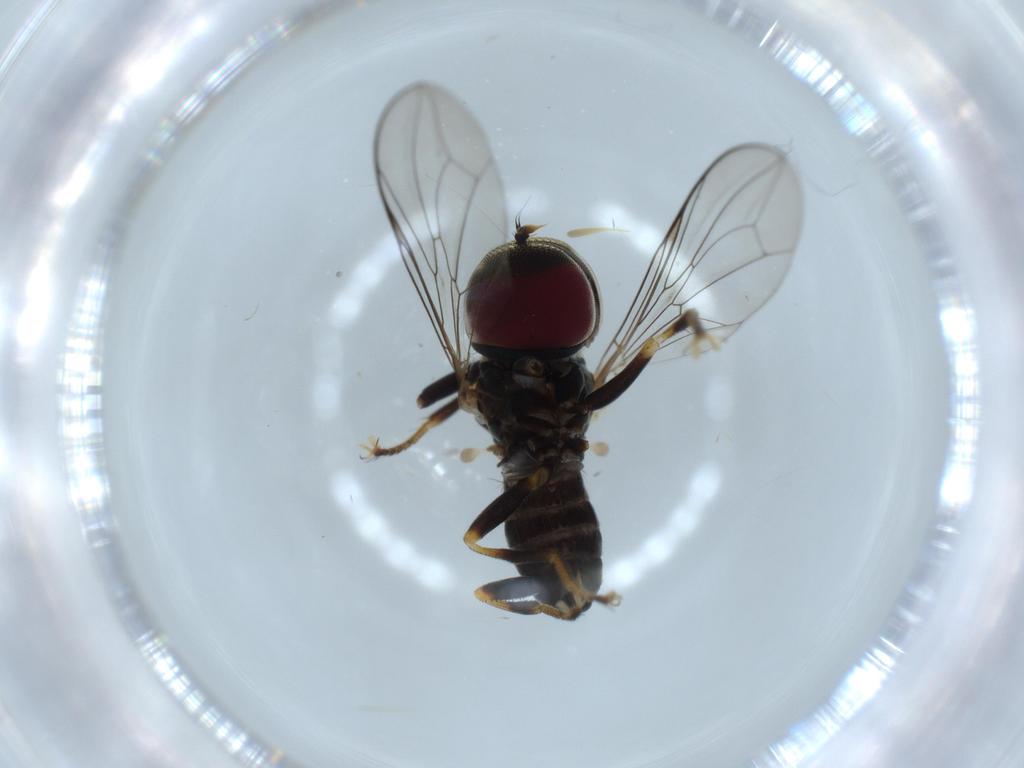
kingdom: Animalia
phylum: Arthropoda
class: Insecta
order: Diptera
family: Pipunculidae
